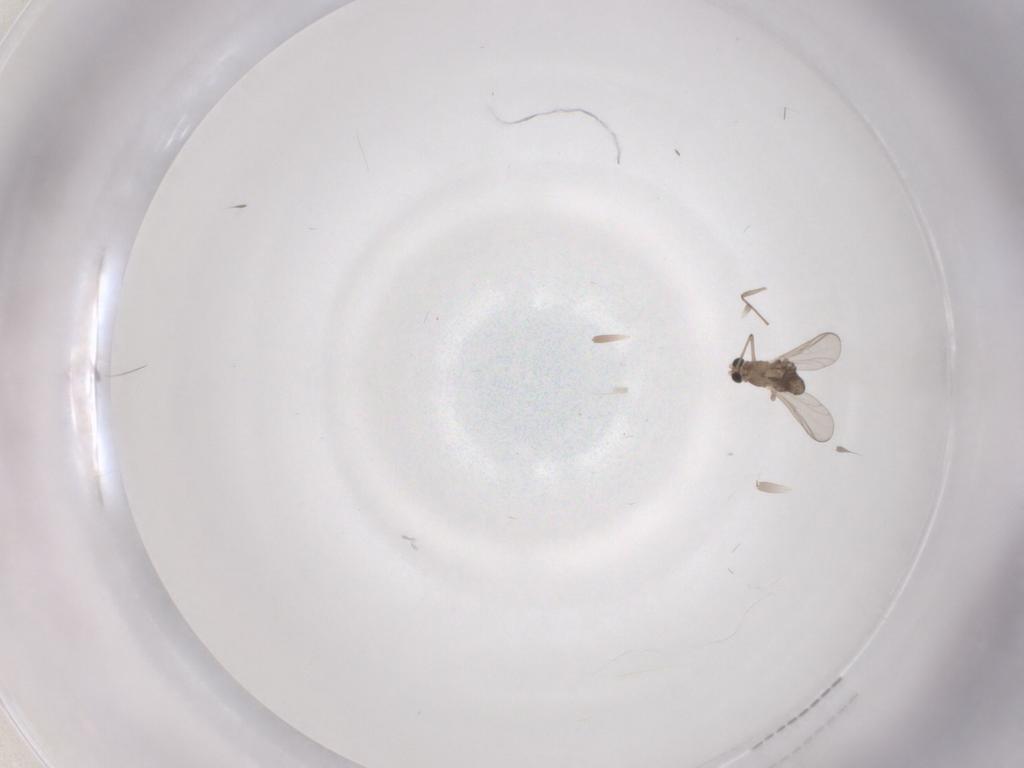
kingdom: Animalia
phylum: Arthropoda
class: Insecta
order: Diptera
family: Chironomidae
